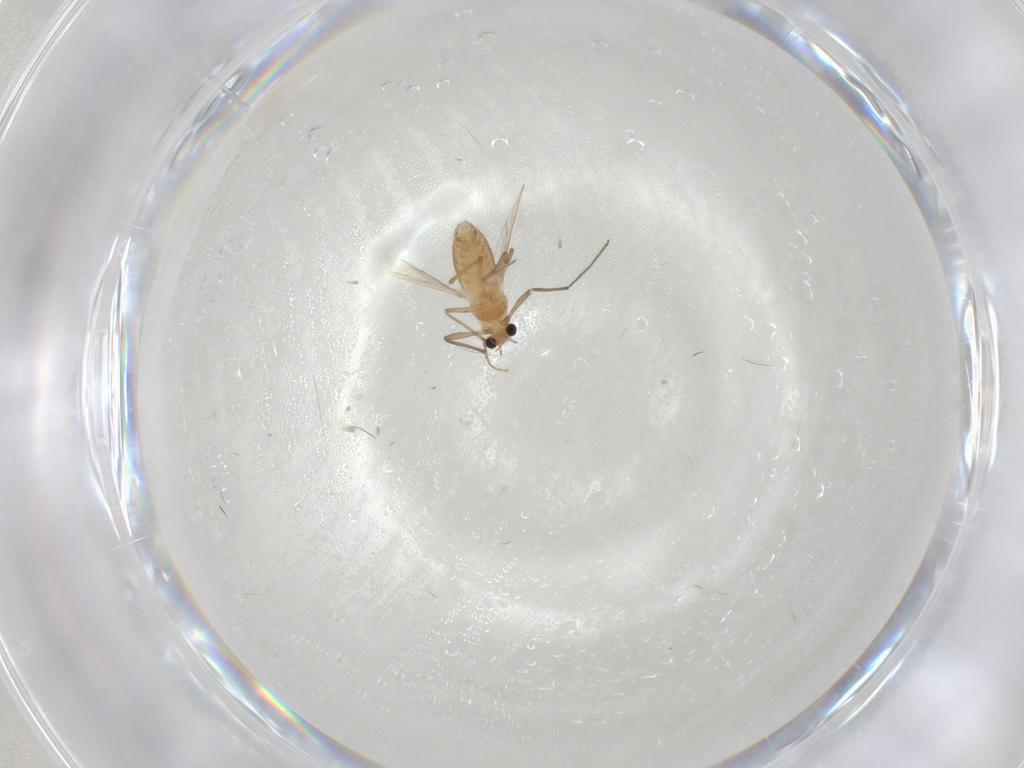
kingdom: Animalia
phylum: Arthropoda
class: Insecta
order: Diptera
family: Chironomidae
